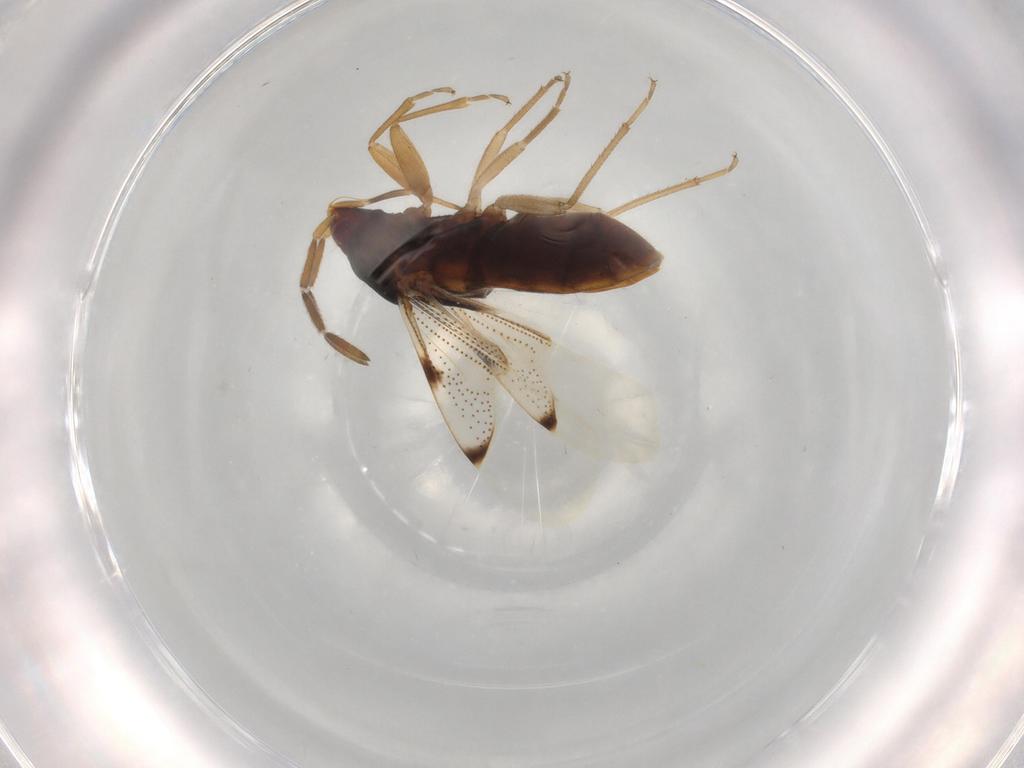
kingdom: Animalia
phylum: Arthropoda
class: Insecta
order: Hemiptera
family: Rhyparochromidae
